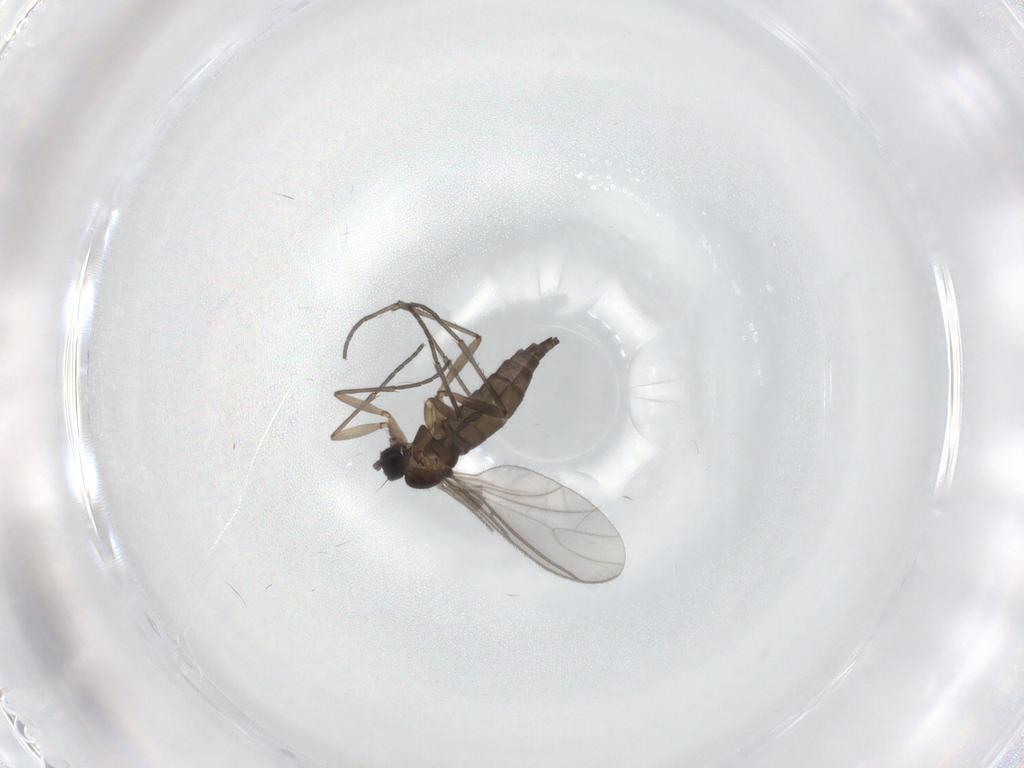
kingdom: Animalia
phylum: Arthropoda
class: Insecta
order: Diptera
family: Sciaridae
